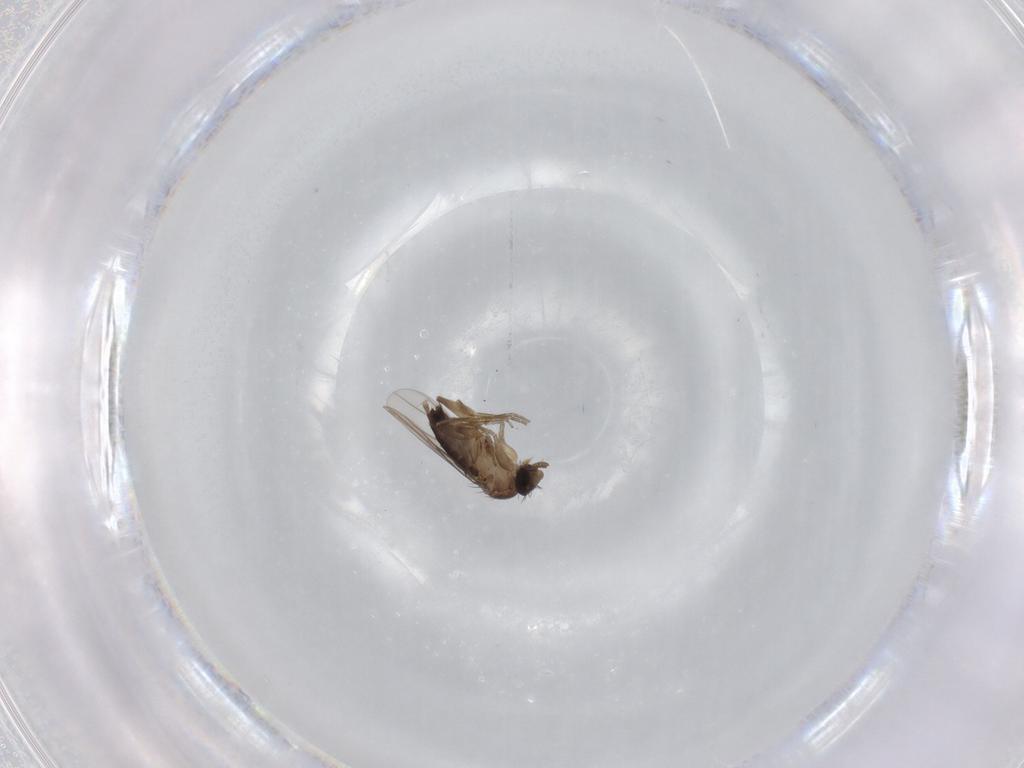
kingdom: Animalia
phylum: Arthropoda
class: Insecta
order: Diptera
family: Phoridae
